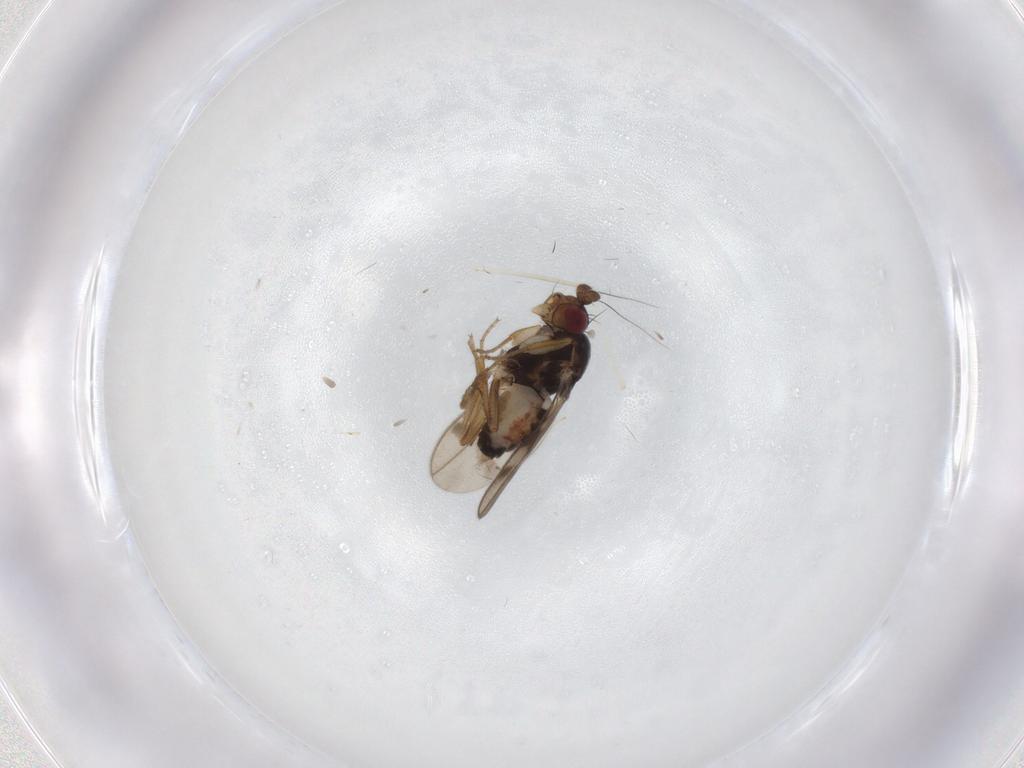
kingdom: Animalia
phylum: Arthropoda
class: Insecta
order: Diptera
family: Sphaeroceridae
